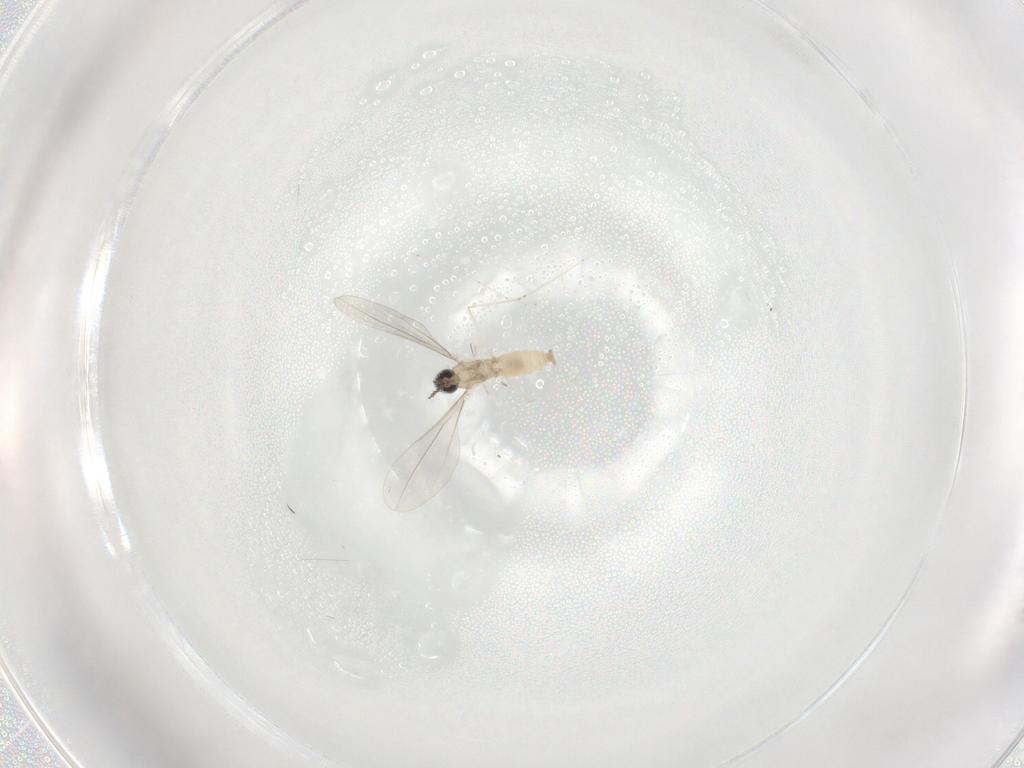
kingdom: Animalia
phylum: Arthropoda
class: Insecta
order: Diptera
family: Cecidomyiidae
